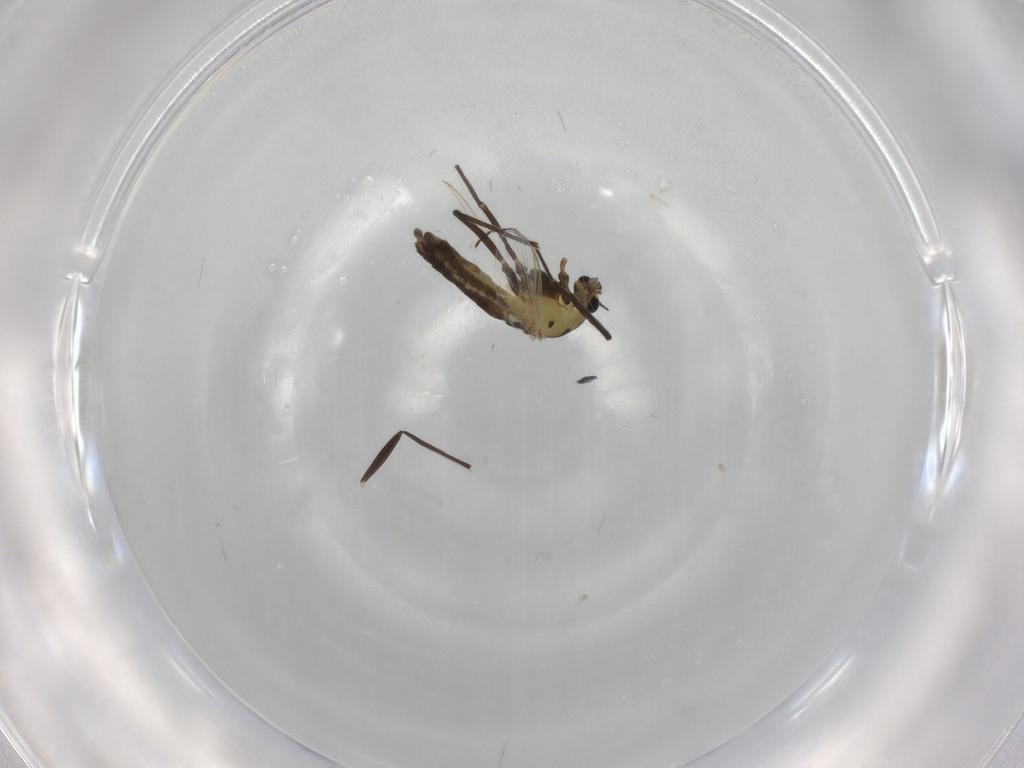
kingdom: Animalia
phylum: Arthropoda
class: Insecta
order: Diptera
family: Chironomidae
